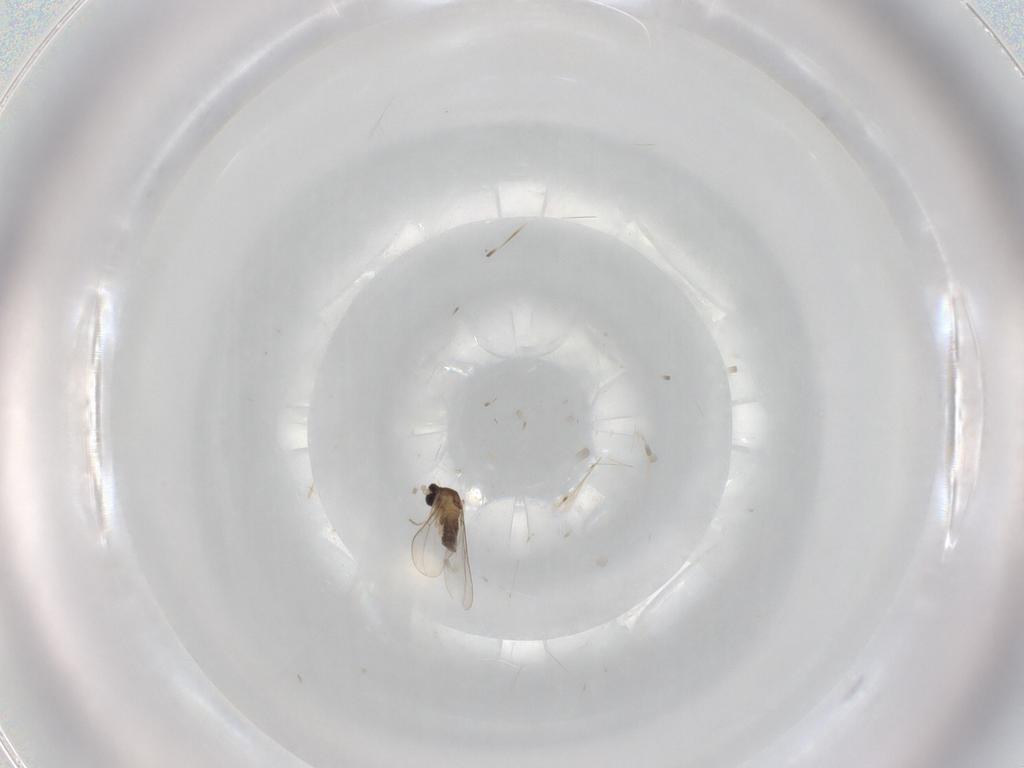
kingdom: Animalia
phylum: Arthropoda
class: Insecta
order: Diptera
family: Cecidomyiidae
